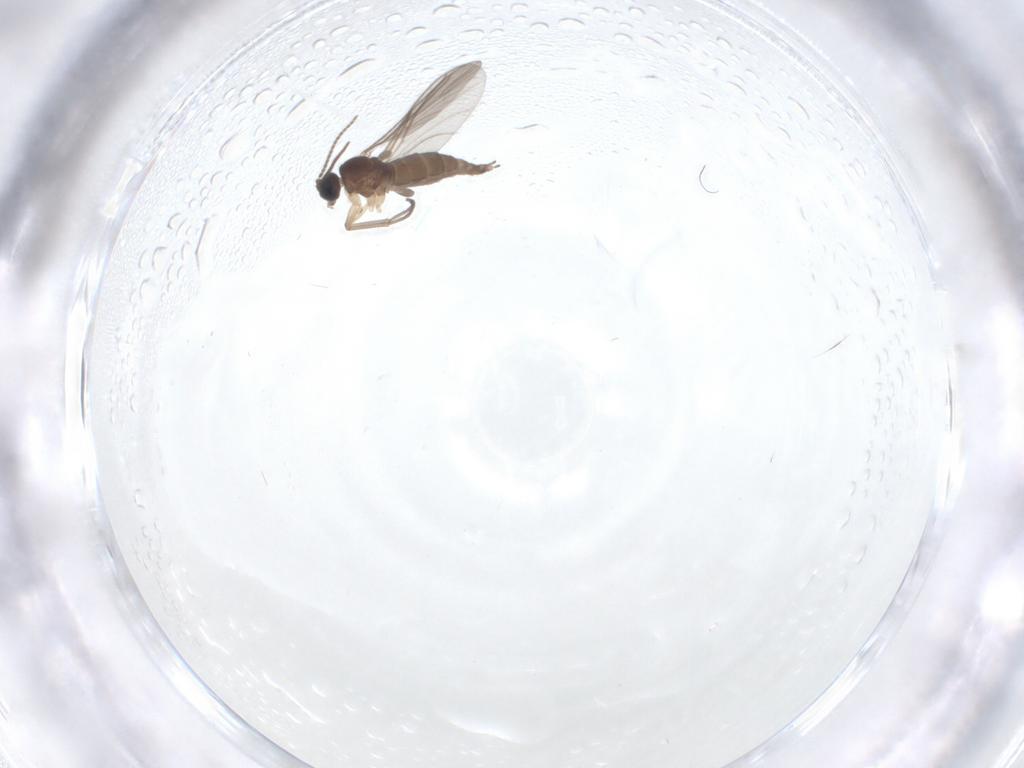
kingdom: Animalia
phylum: Arthropoda
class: Insecta
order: Diptera
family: Sciaridae
